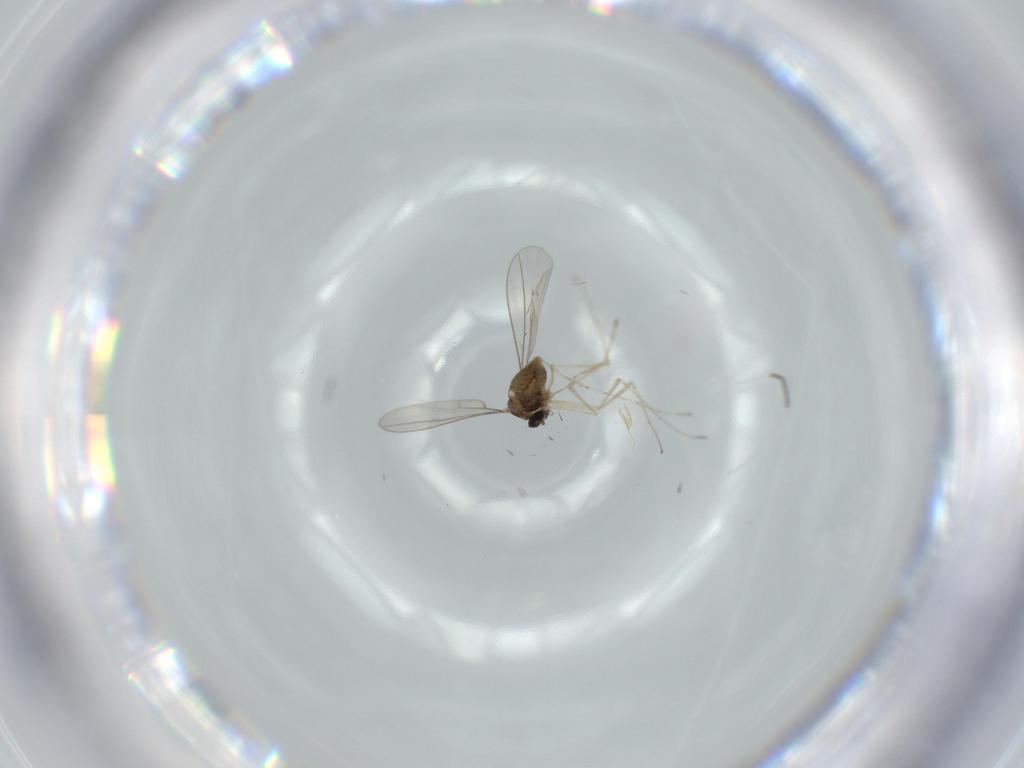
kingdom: Animalia
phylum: Arthropoda
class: Insecta
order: Diptera
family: Cecidomyiidae
